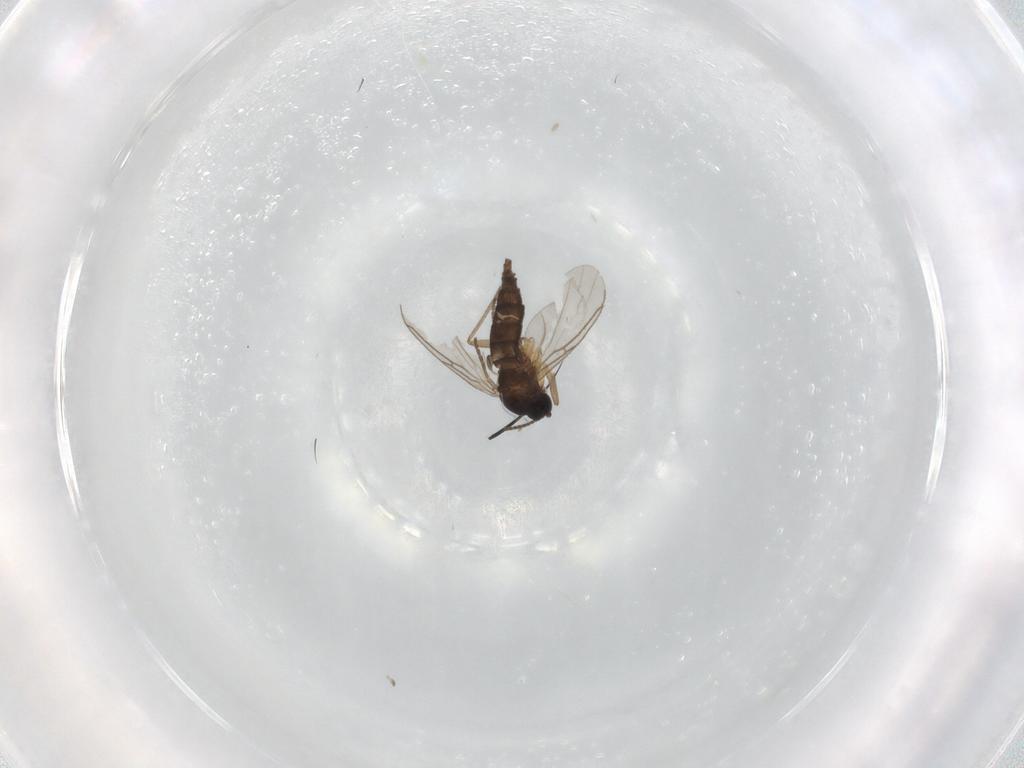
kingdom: Animalia
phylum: Arthropoda
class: Insecta
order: Diptera
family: Sciaridae
